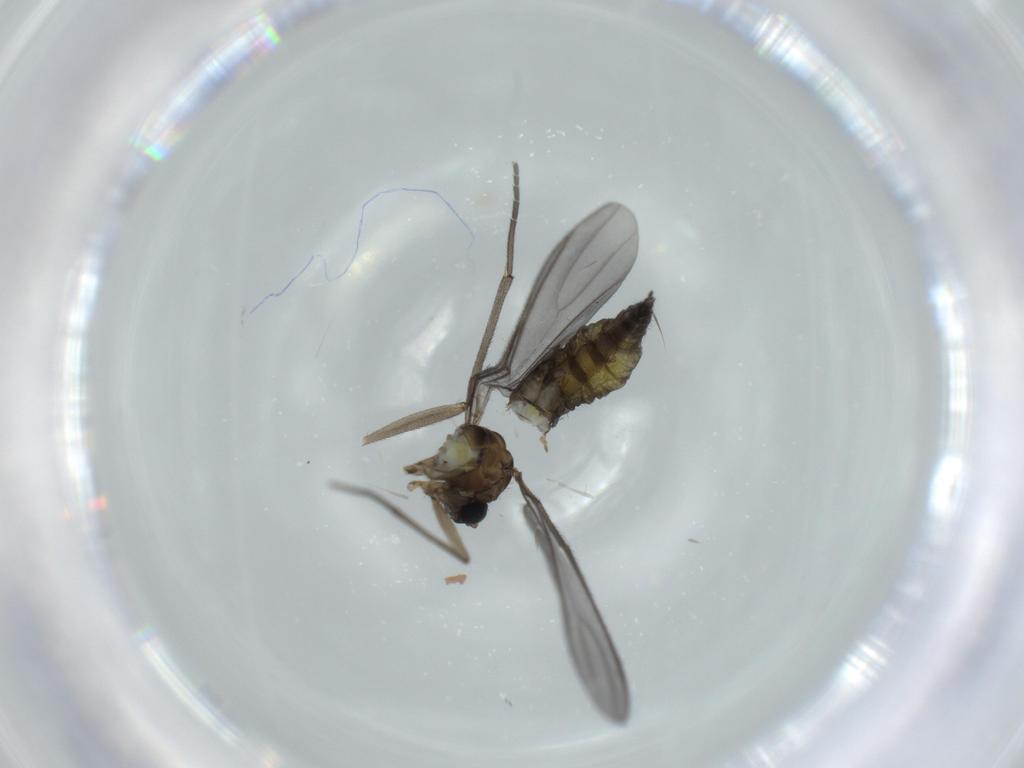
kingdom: Animalia
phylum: Arthropoda
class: Insecta
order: Diptera
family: Sciaridae
